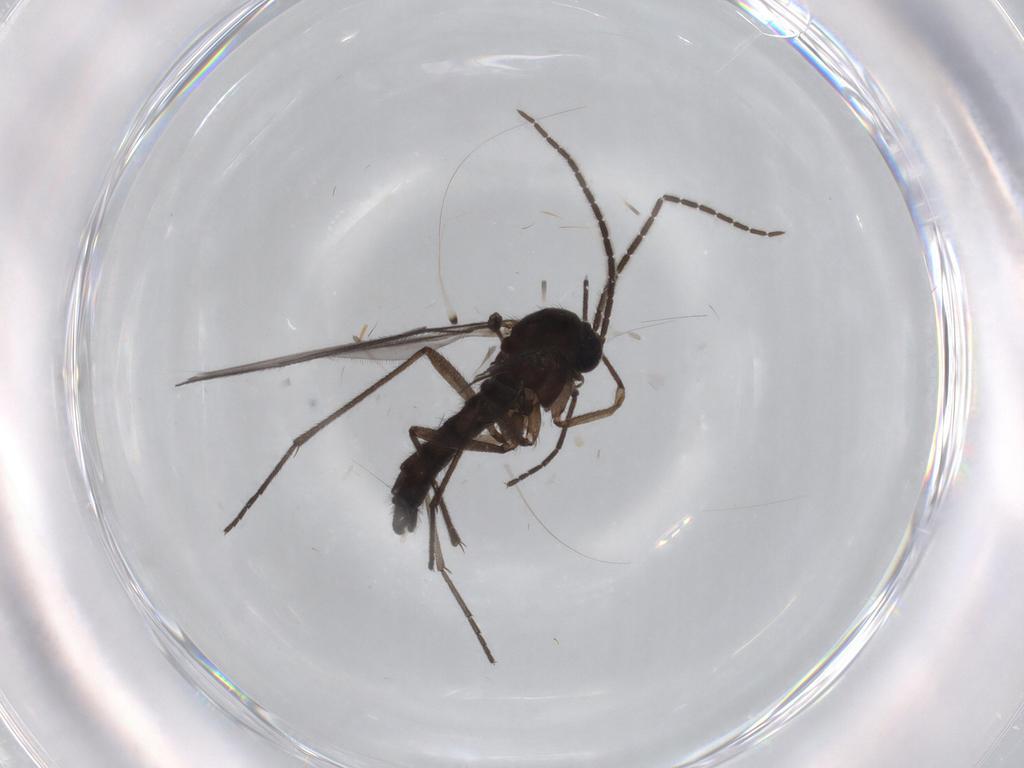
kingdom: Animalia
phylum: Arthropoda
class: Insecta
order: Diptera
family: Sciaridae
